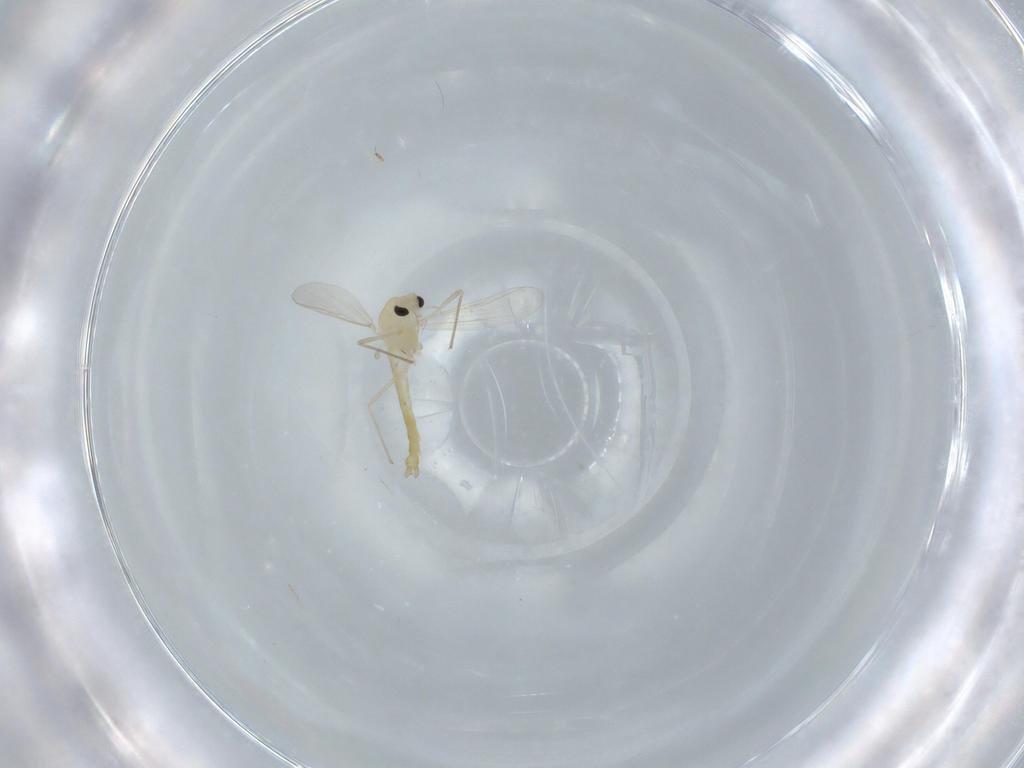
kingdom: Animalia
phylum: Arthropoda
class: Insecta
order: Diptera
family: Chironomidae
